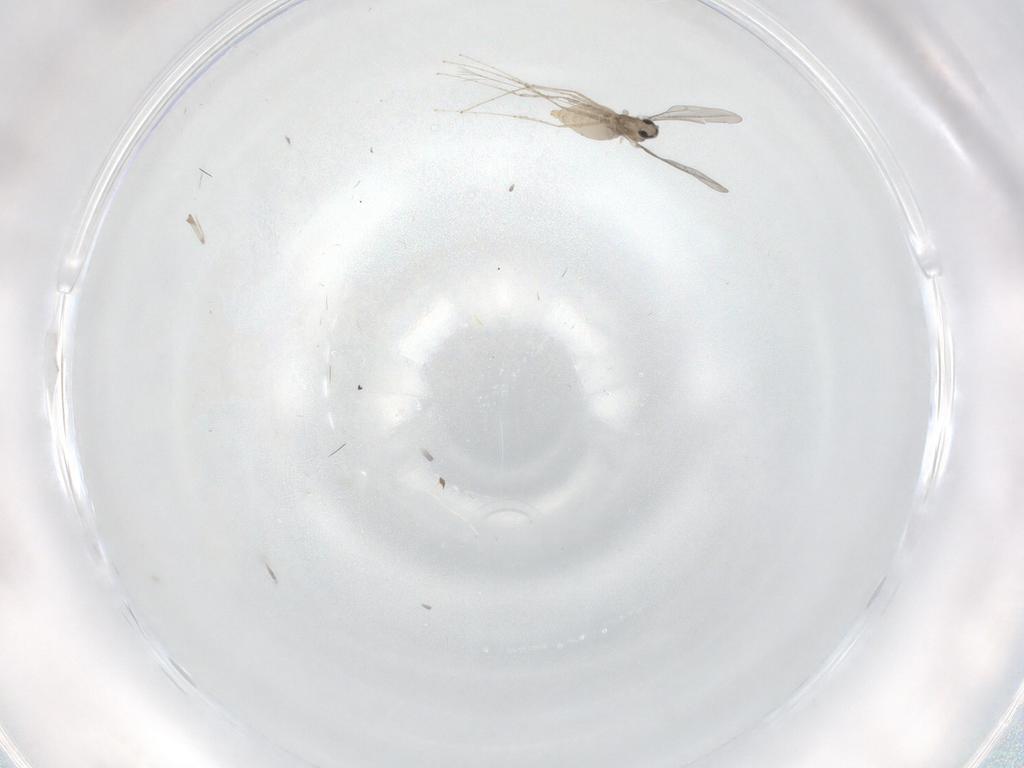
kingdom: Animalia
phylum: Arthropoda
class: Insecta
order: Diptera
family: Ceratopogonidae
